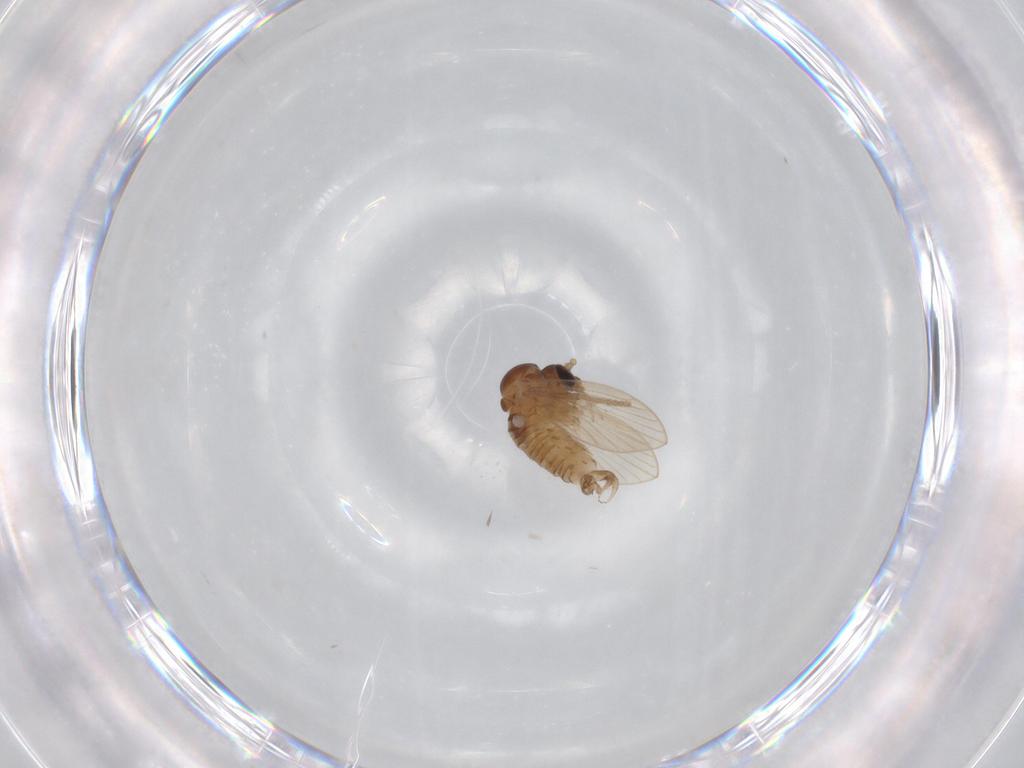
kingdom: Animalia
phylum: Arthropoda
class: Insecta
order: Diptera
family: Psychodidae
